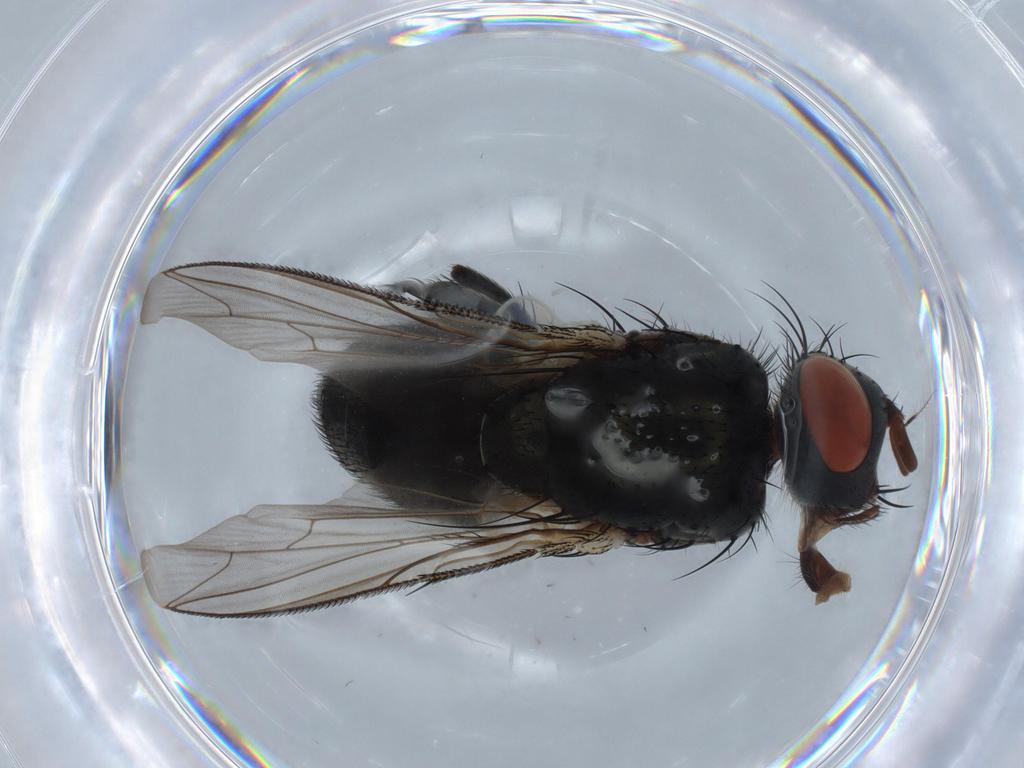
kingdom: Animalia
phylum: Arthropoda
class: Insecta
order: Diptera
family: Sarcophagidae
